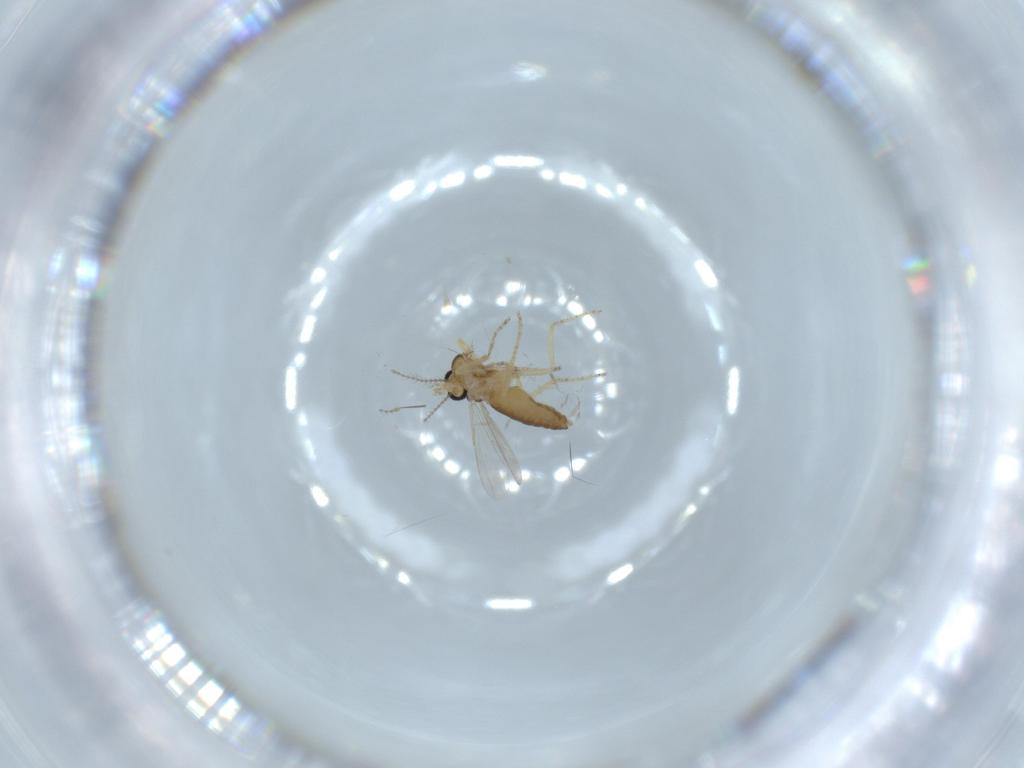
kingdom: Animalia
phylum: Arthropoda
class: Insecta
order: Diptera
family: Ceratopogonidae
